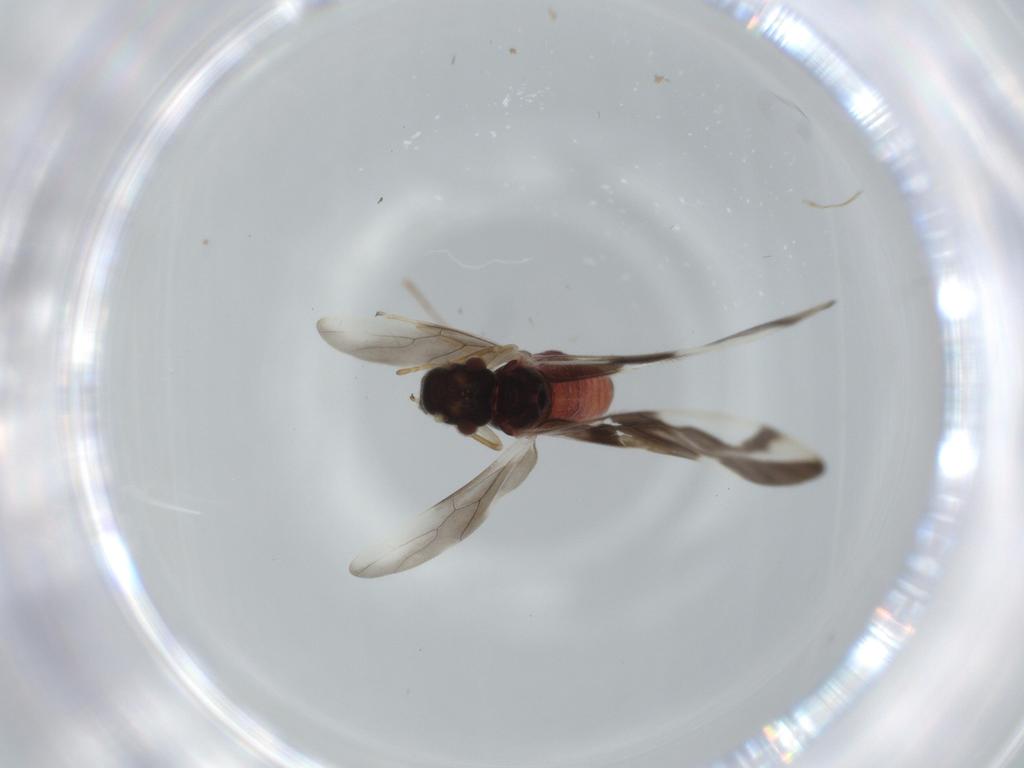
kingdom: Animalia
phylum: Arthropoda
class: Insecta
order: Psocodea
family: Caeciliusidae
